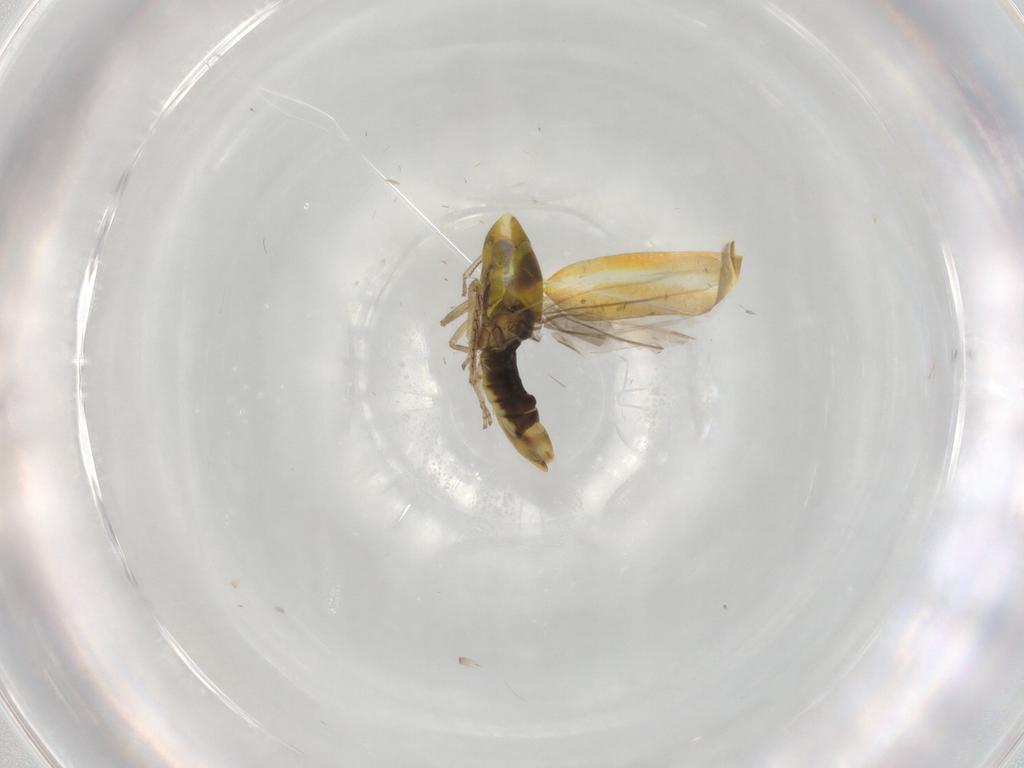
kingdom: Animalia
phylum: Arthropoda
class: Insecta
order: Hemiptera
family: Cicadellidae
